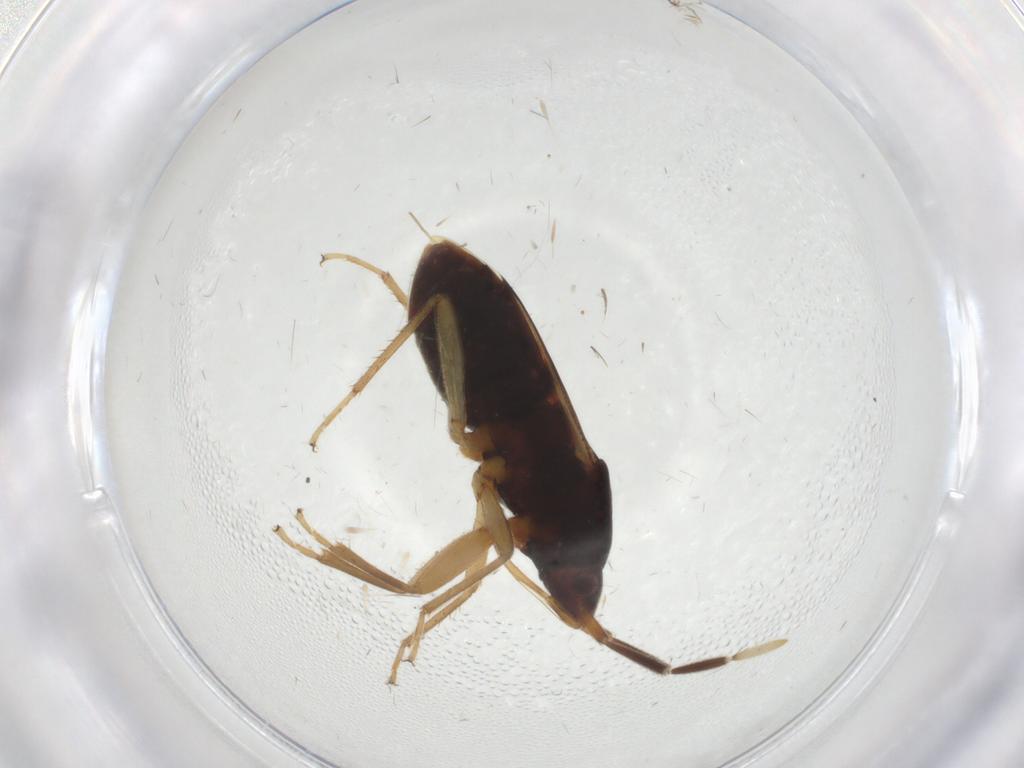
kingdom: Animalia
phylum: Arthropoda
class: Insecta
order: Hemiptera
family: Rhyparochromidae
